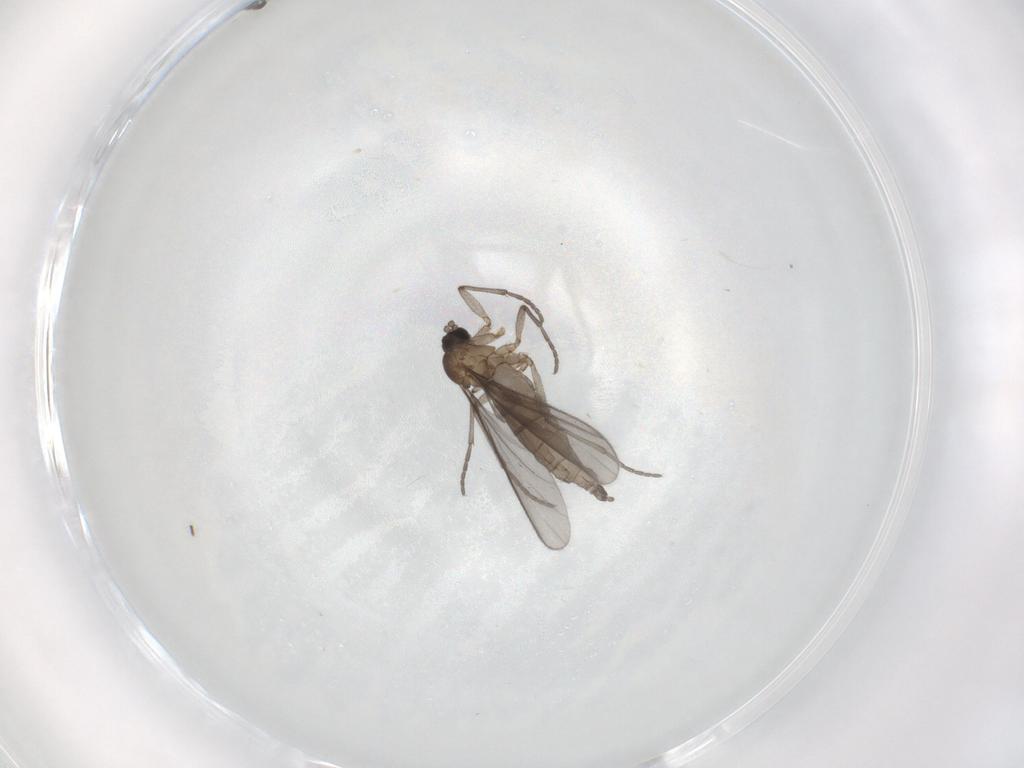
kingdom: Animalia
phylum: Arthropoda
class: Insecta
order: Diptera
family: Sciaridae
